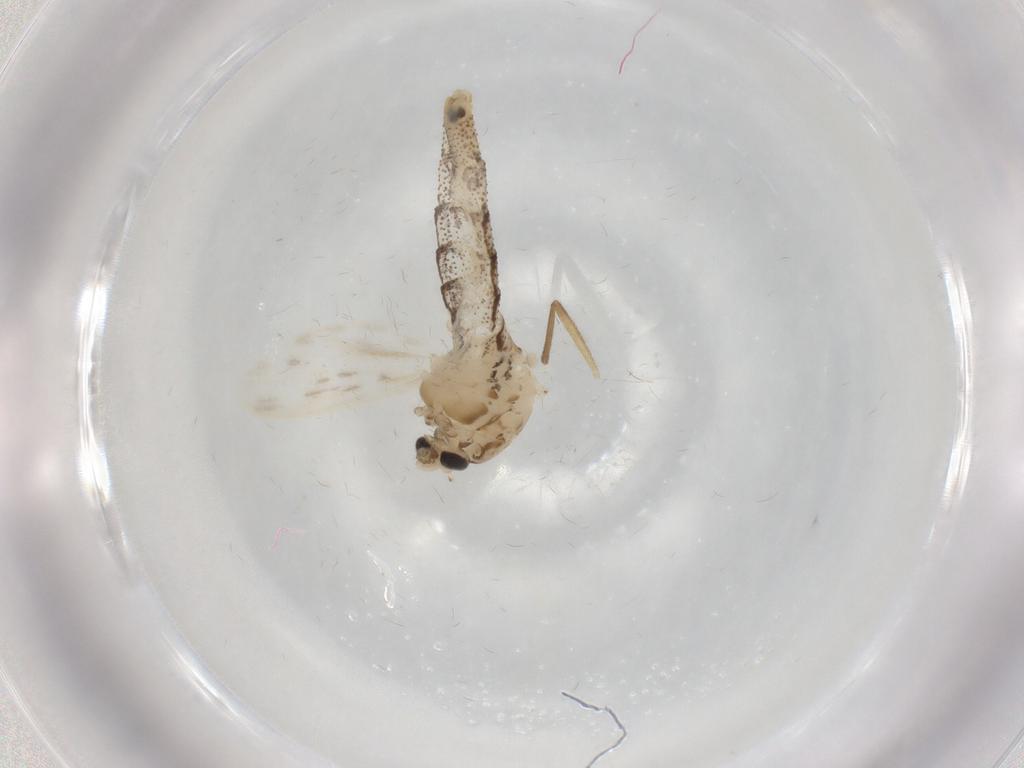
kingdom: Animalia
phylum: Arthropoda
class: Insecta
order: Diptera
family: Chaoboridae
